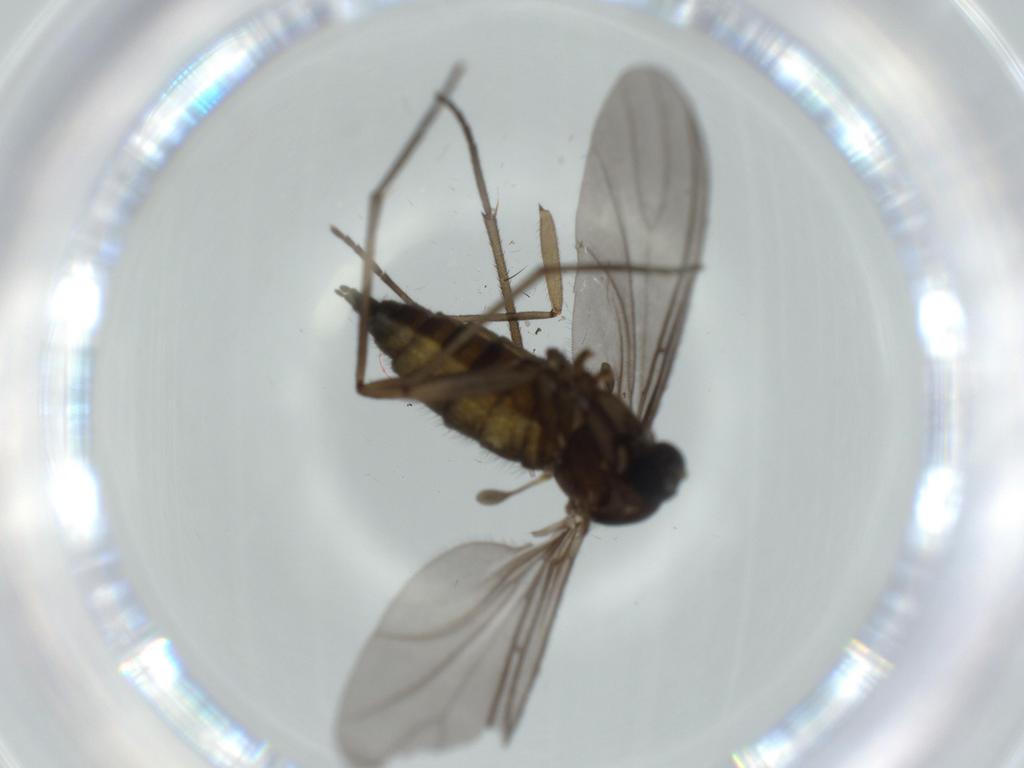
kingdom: Animalia
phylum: Arthropoda
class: Insecta
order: Diptera
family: Sciaridae
